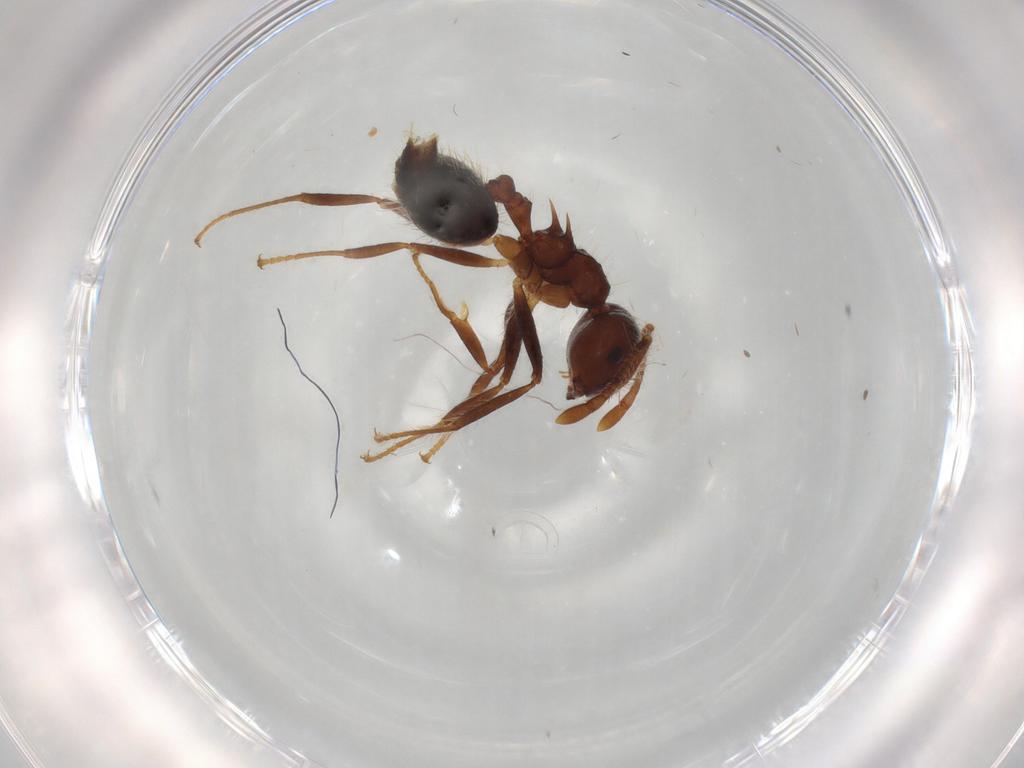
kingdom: Animalia
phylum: Arthropoda
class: Insecta
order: Hymenoptera
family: Formicidae
